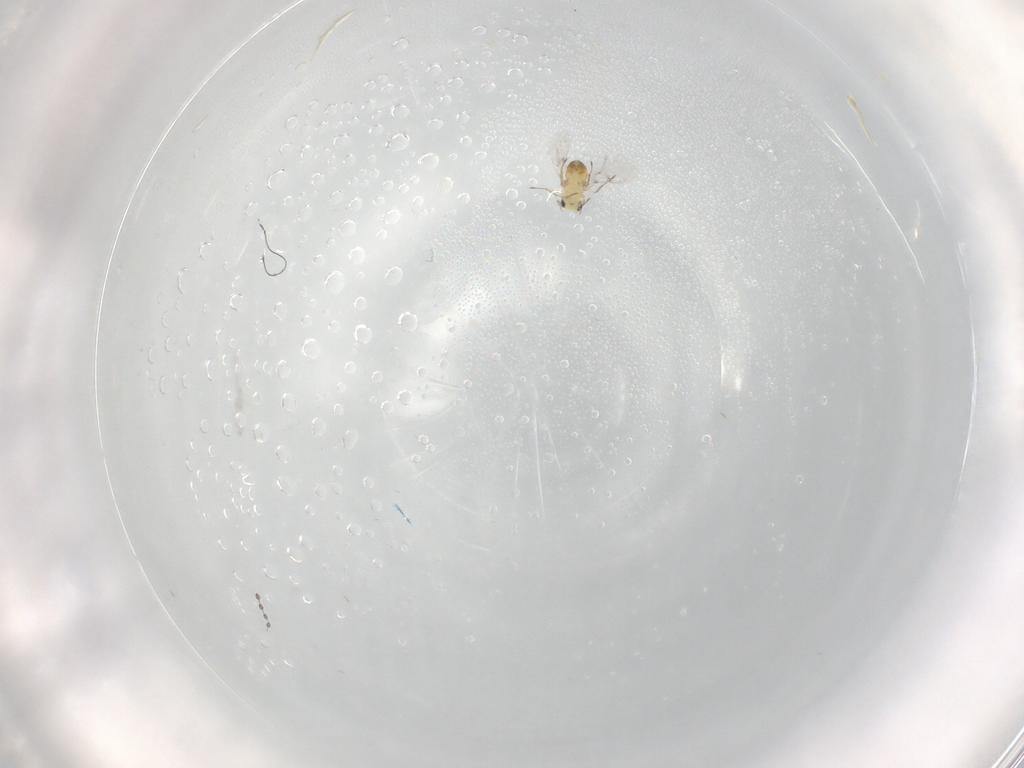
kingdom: Animalia
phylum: Arthropoda
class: Insecta
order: Diptera
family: Sciaridae
